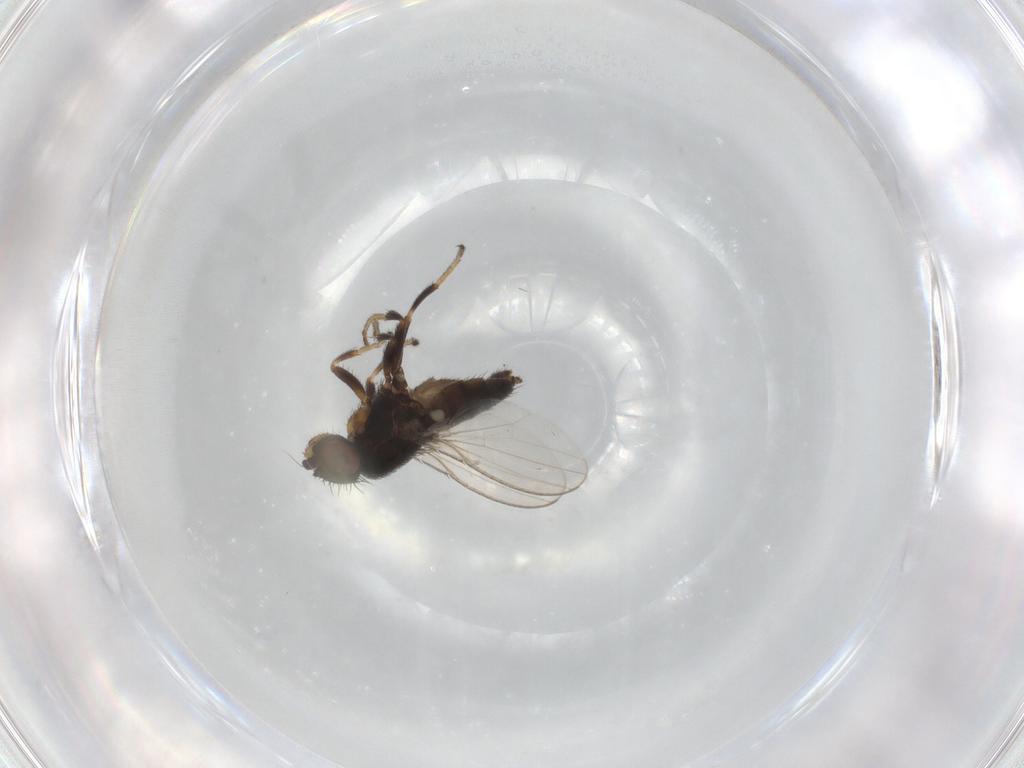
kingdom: Animalia
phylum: Arthropoda
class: Insecta
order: Diptera
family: Milichiidae
